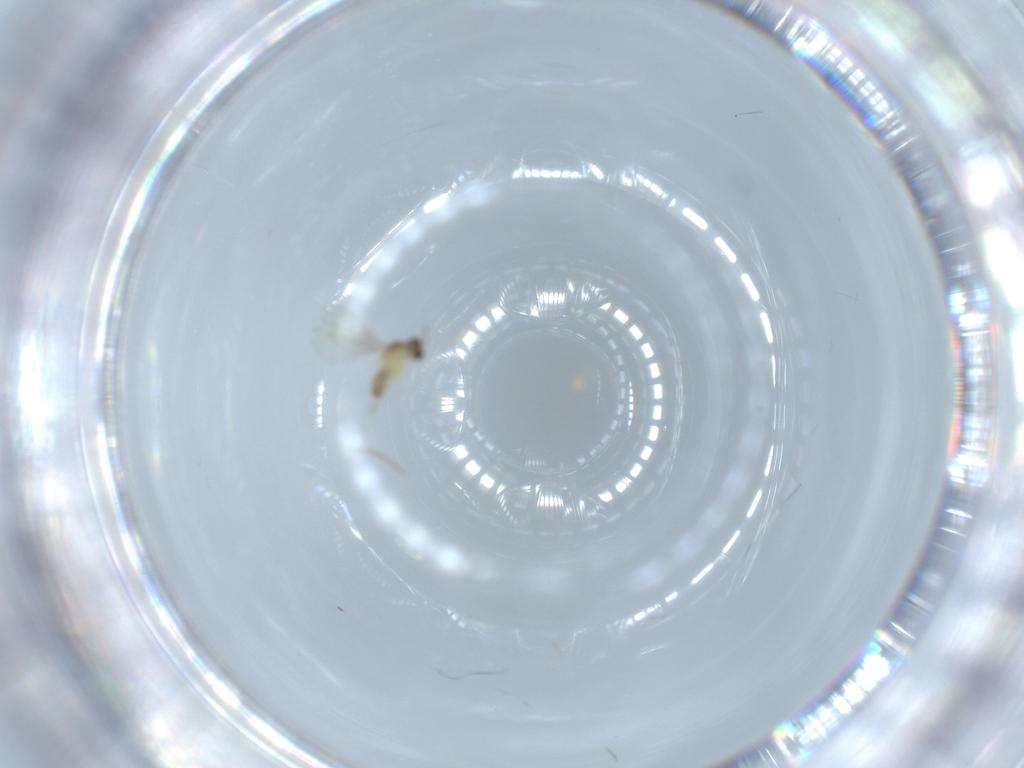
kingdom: Animalia
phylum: Arthropoda
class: Insecta
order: Diptera
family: Cecidomyiidae
